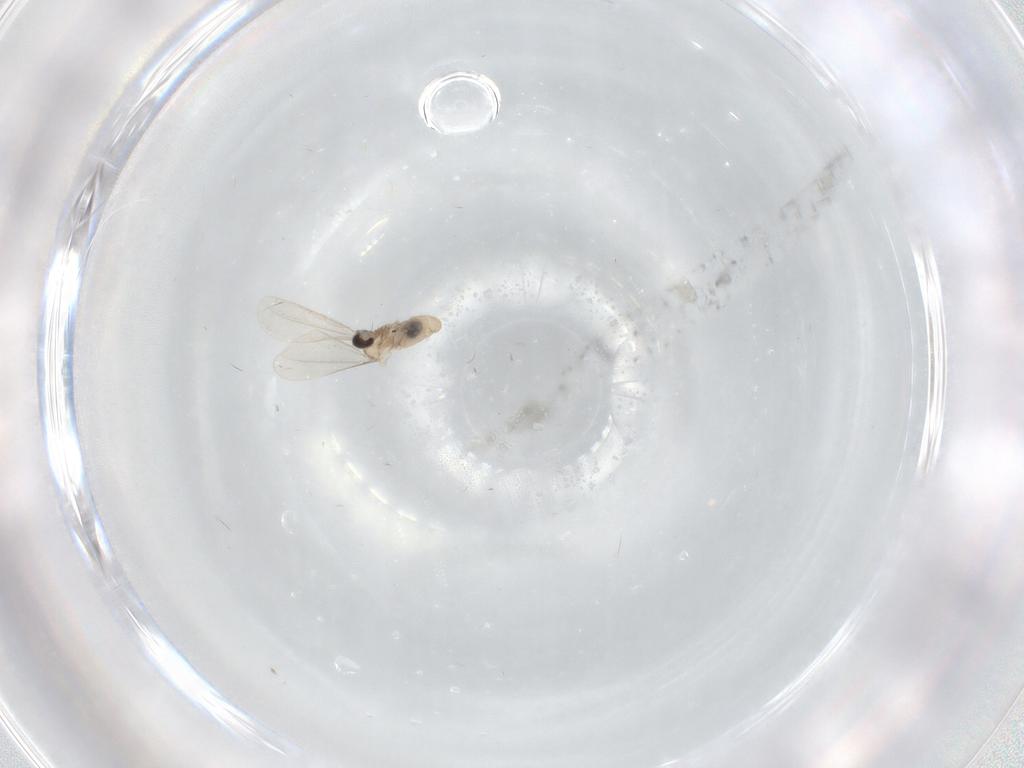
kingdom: Animalia
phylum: Arthropoda
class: Insecta
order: Diptera
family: Limoniidae
